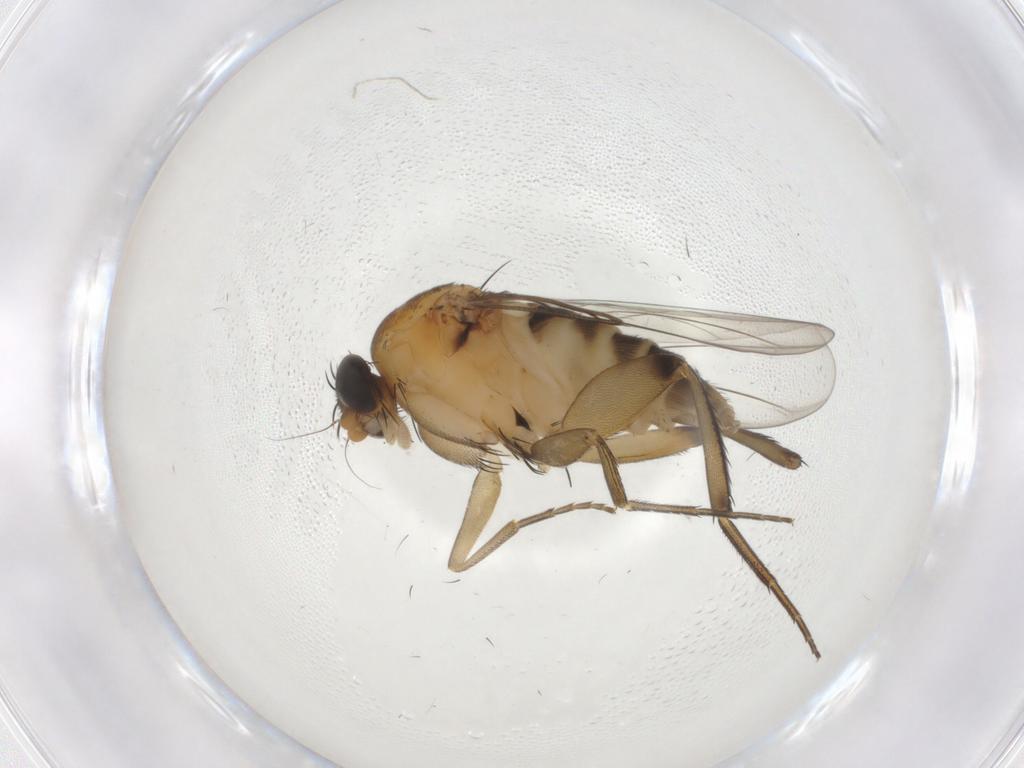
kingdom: Animalia
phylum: Arthropoda
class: Insecta
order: Diptera
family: Phoridae
